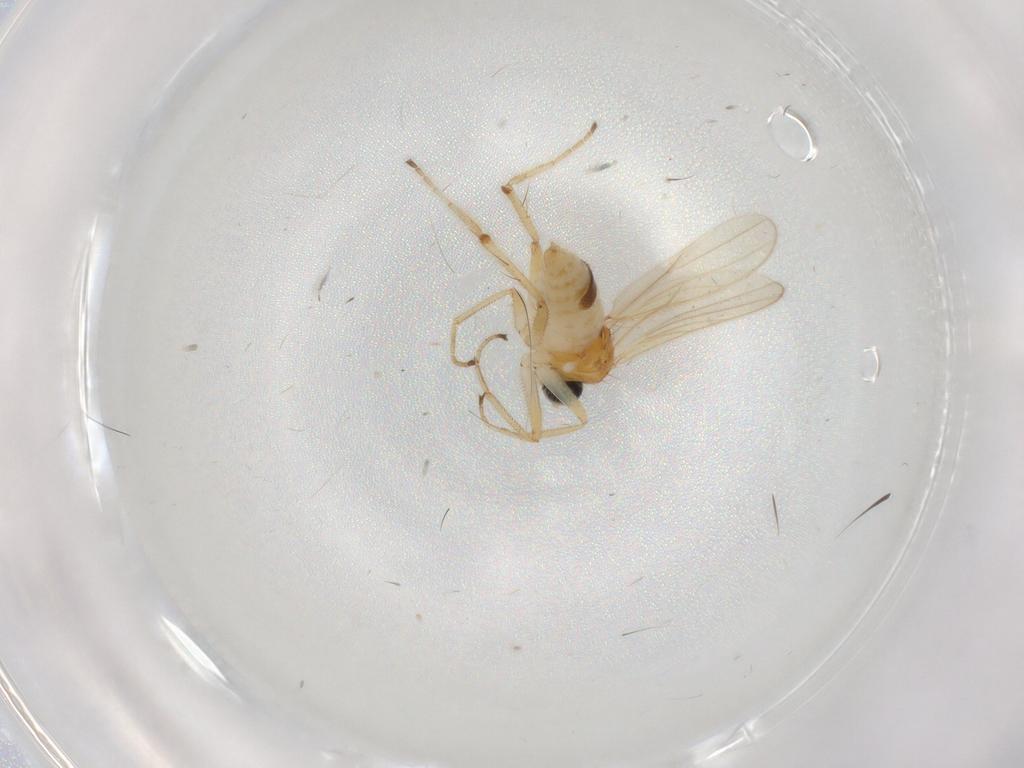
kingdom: Animalia
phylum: Arthropoda
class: Insecta
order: Diptera
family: Hybotidae
